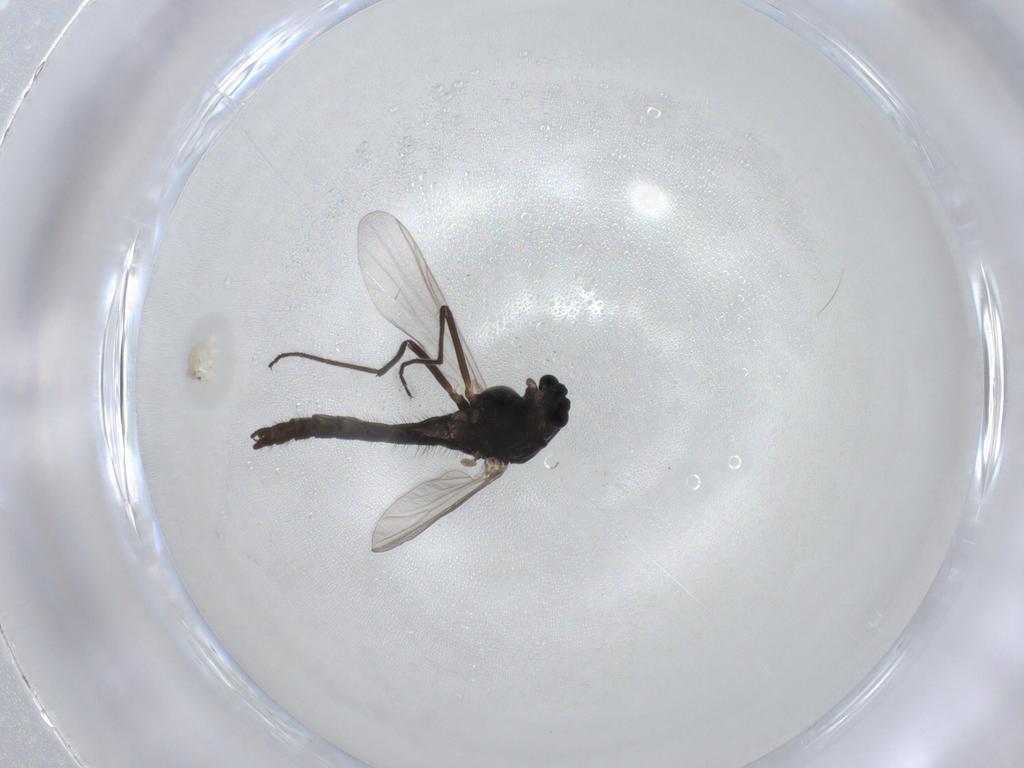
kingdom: Animalia
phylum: Arthropoda
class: Insecta
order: Diptera
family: Chironomidae
